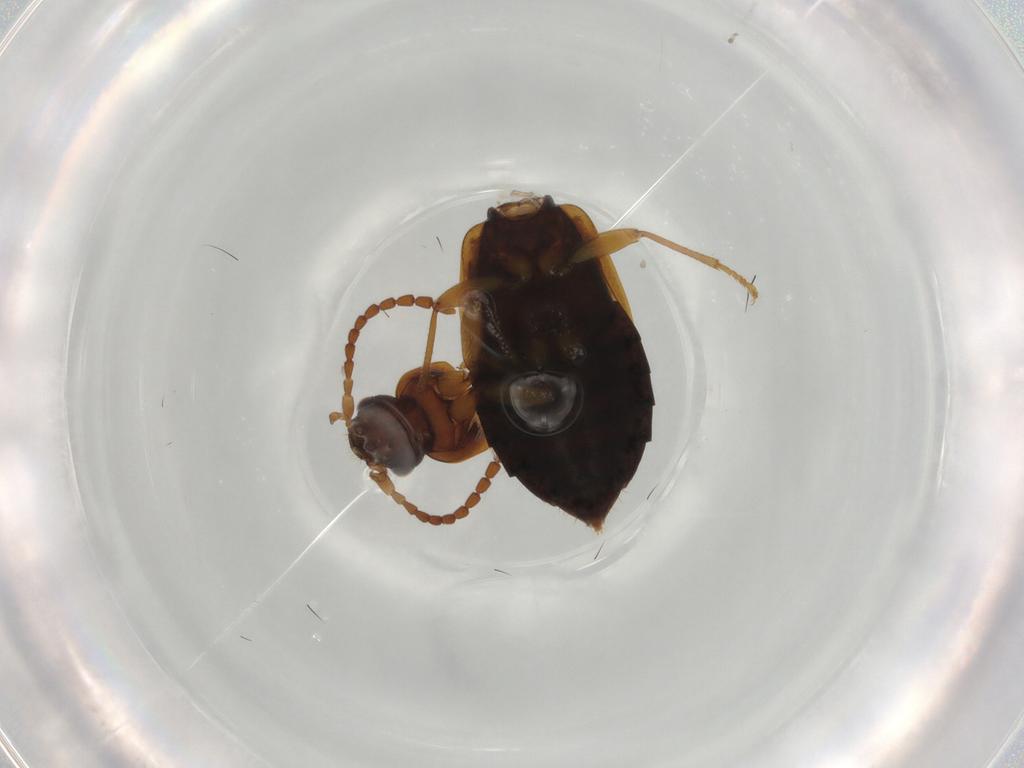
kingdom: Animalia
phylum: Arthropoda
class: Insecta
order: Coleoptera
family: Staphylinidae
